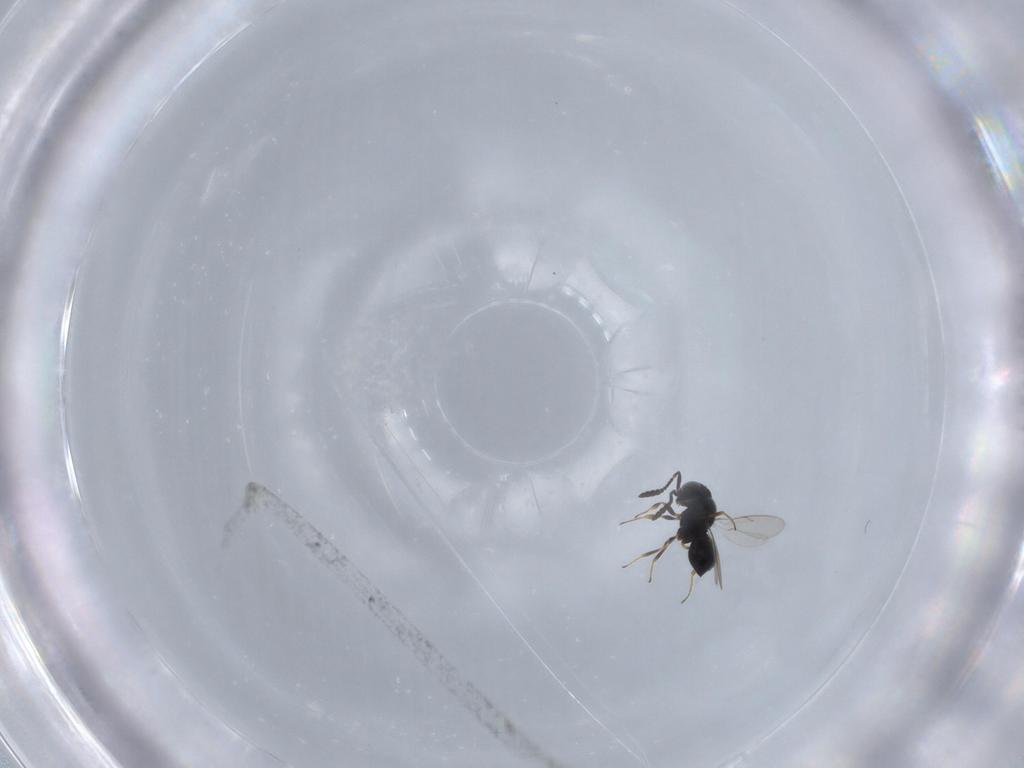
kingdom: Animalia
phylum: Arthropoda
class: Insecta
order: Hymenoptera
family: Scelionidae
